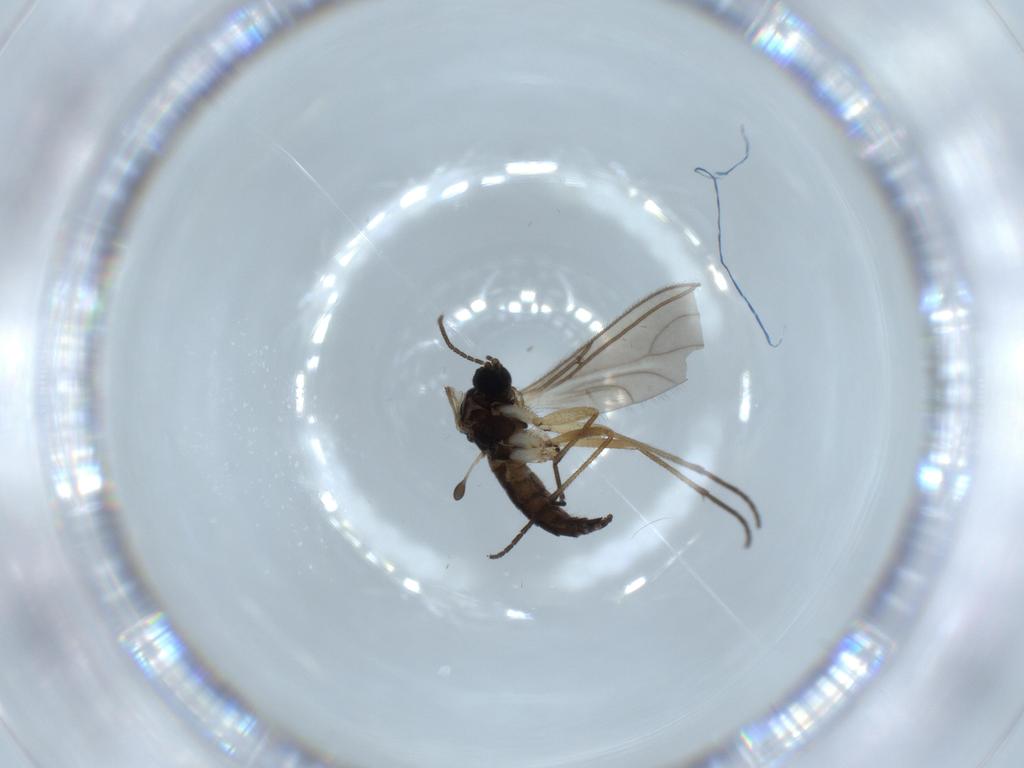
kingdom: Animalia
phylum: Arthropoda
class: Insecta
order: Diptera
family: Sciaridae
